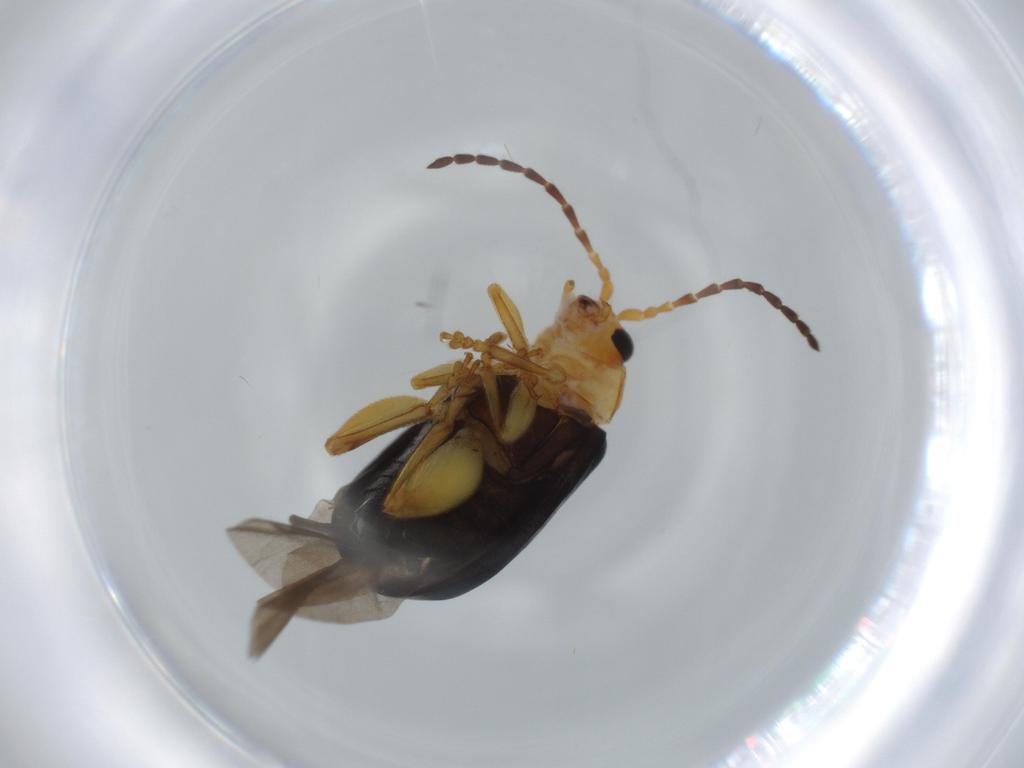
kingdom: Animalia
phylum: Arthropoda
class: Insecta
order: Coleoptera
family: Chrysomelidae
